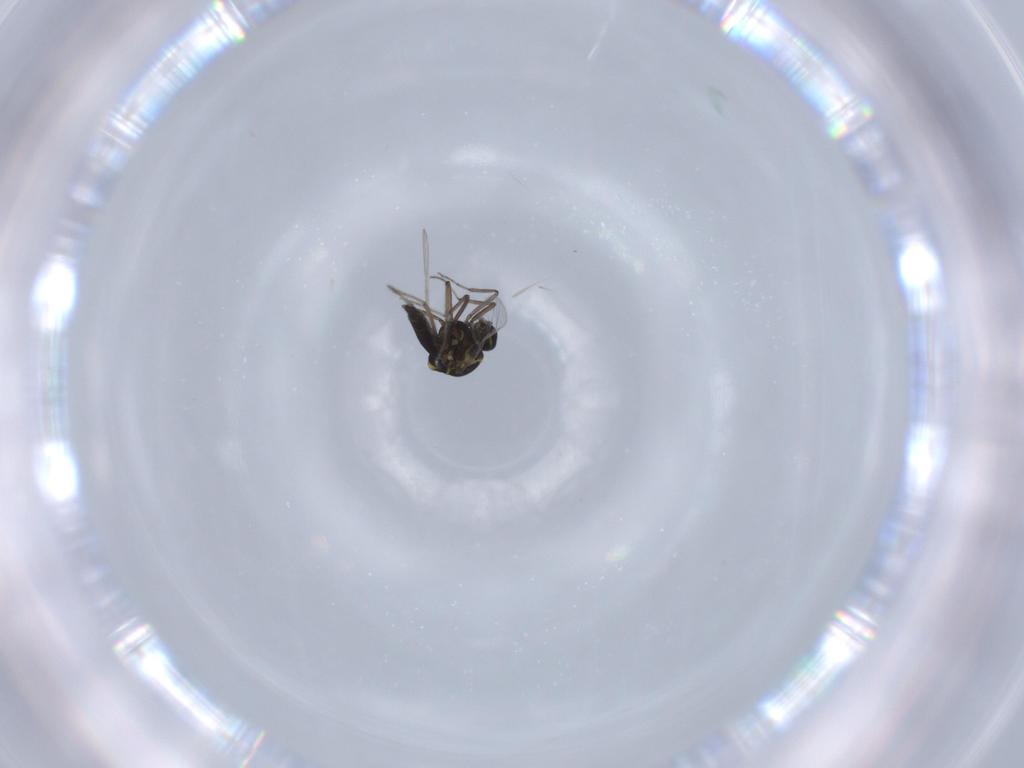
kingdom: Animalia
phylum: Arthropoda
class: Insecta
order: Diptera
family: Ceratopogonidae
